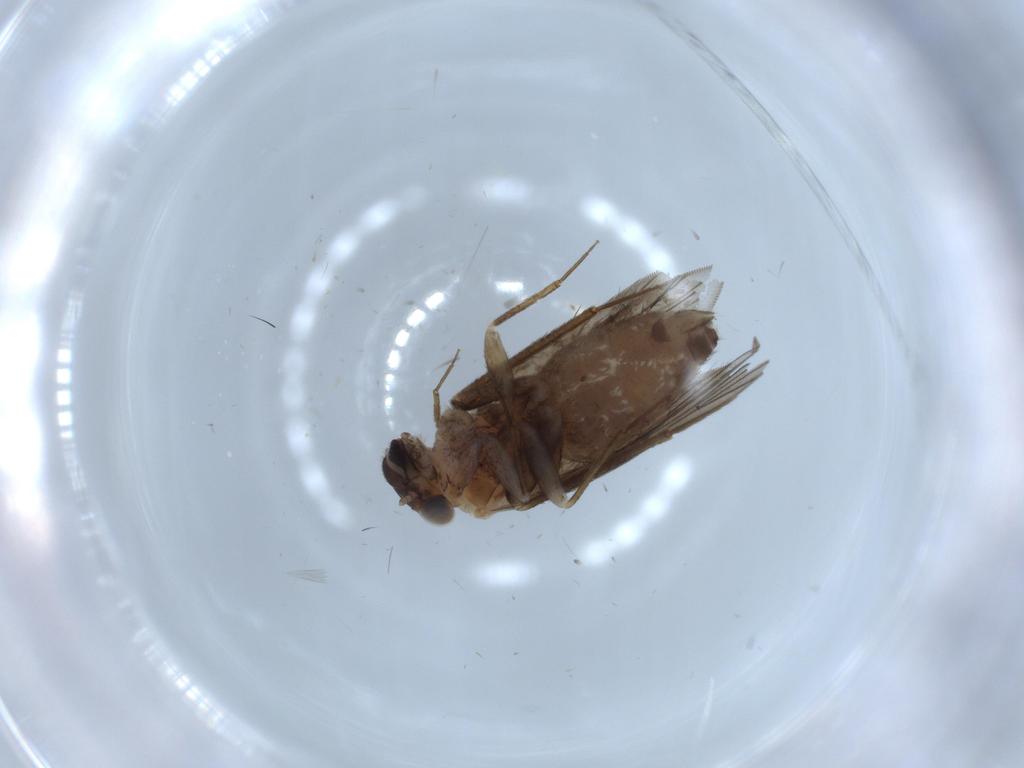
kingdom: Animalia
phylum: Arthropoda
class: Insecta
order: Psocodea
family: Lepidopsocidae
